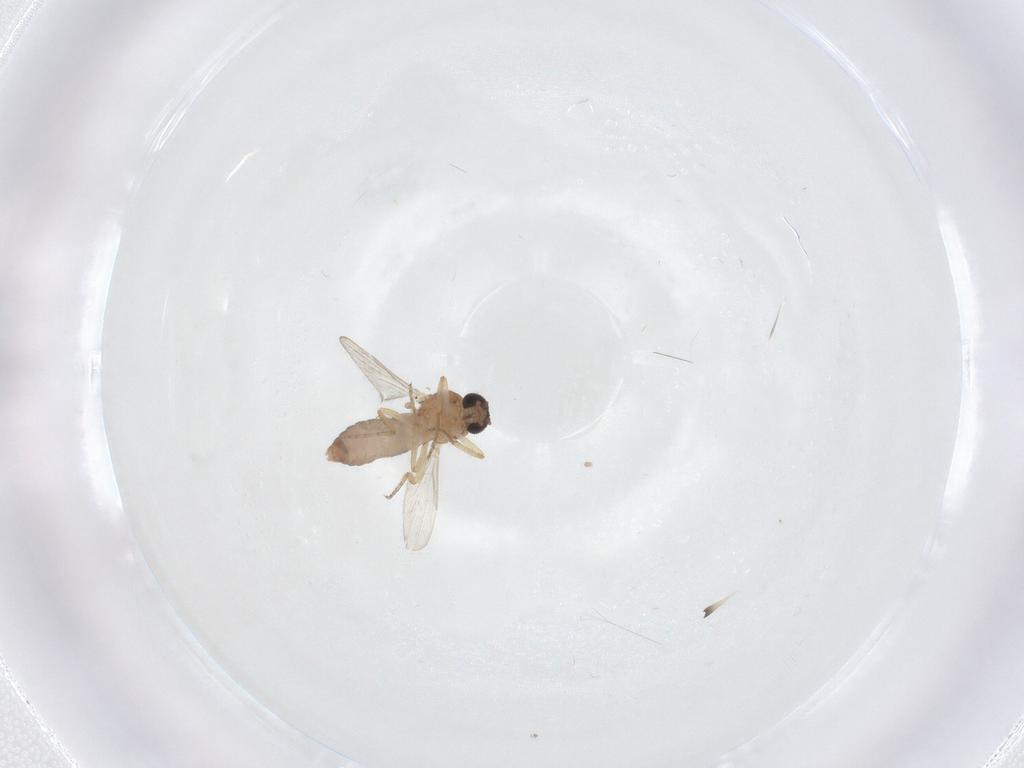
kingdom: Animalia
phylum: Arthropoda
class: Insecta
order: Diptera
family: Ceratopogonidae
